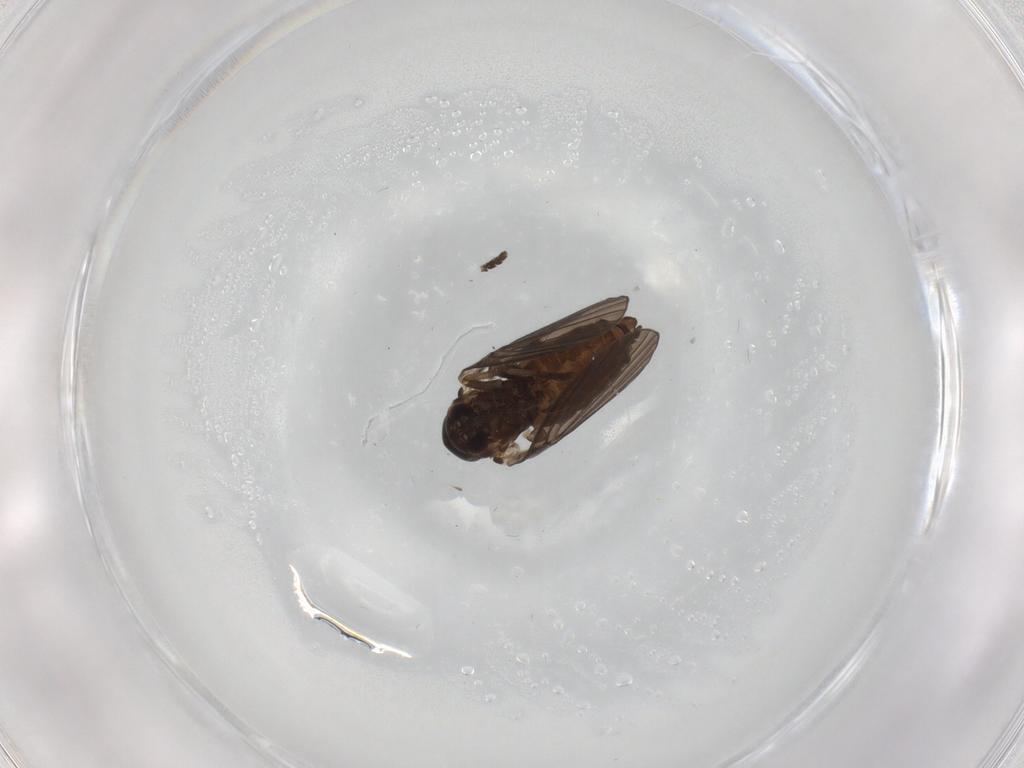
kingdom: Animalia
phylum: Arthropoda
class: Insecta
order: Diptera
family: Psychodidae
